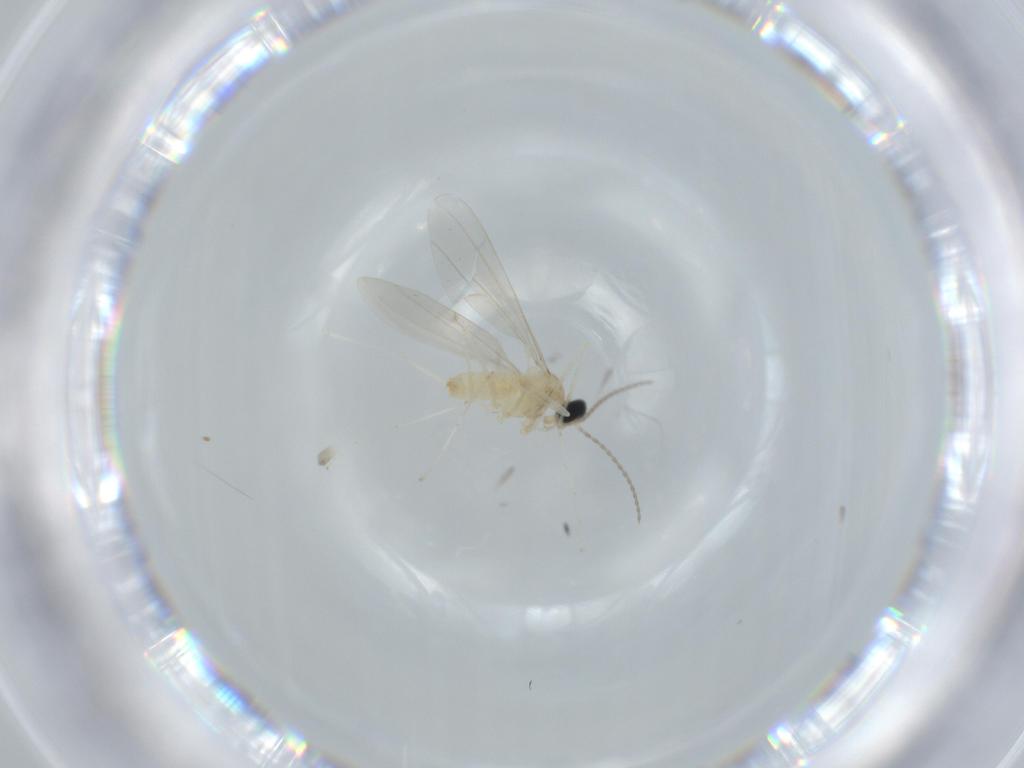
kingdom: Animalia
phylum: Arthropoda
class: Insecta
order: Diptera
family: Cecidomyiidae
